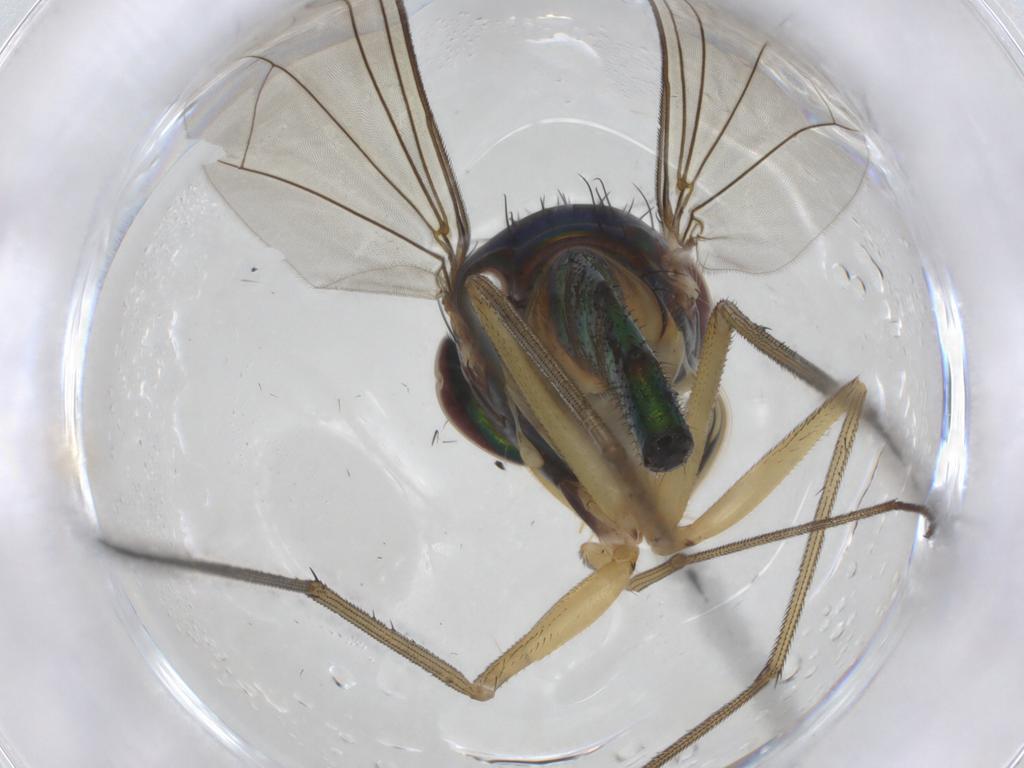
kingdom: Animalia
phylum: Arthropoda
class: Insecta
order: Diptera
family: Dolichopodidae
